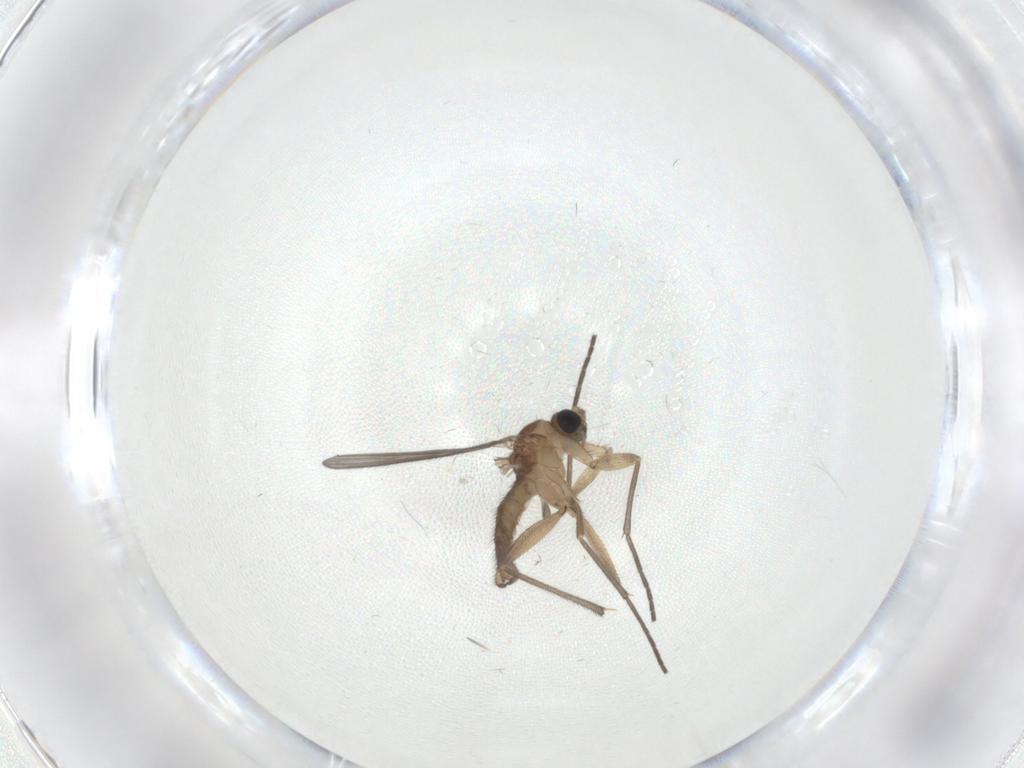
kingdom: Animalia
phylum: Arthropoda
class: Insecta
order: Diptera
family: Sciaridae
